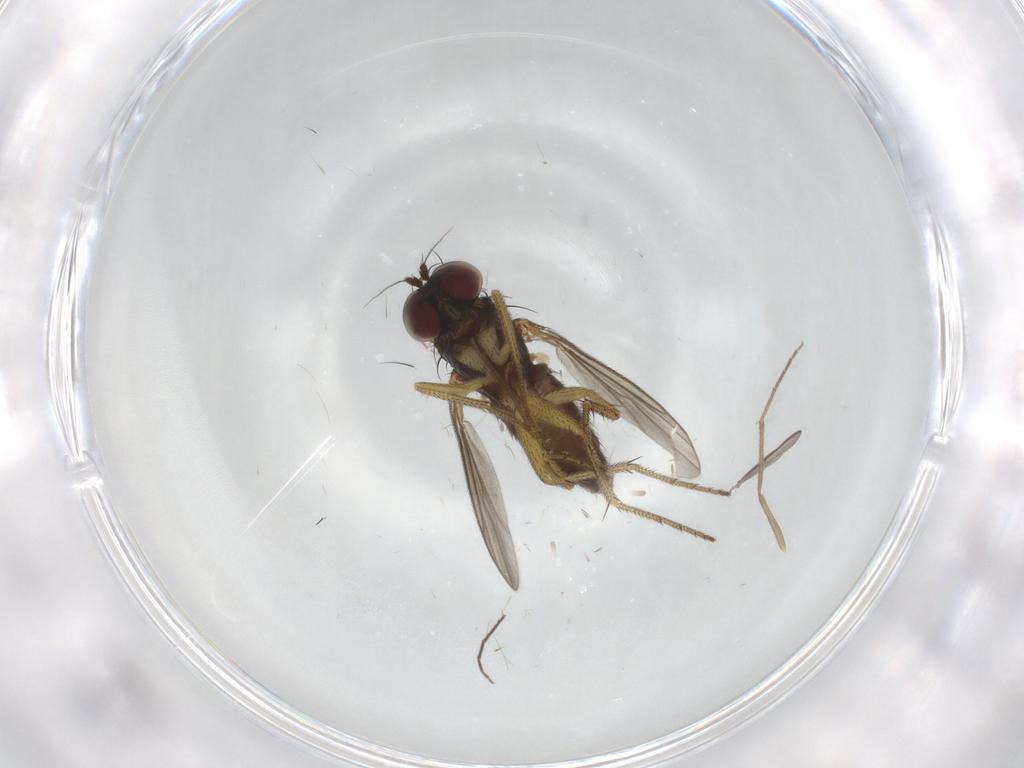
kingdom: Animalia
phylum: Arthropoda
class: Insecta
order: Diptera
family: Chironomidae
